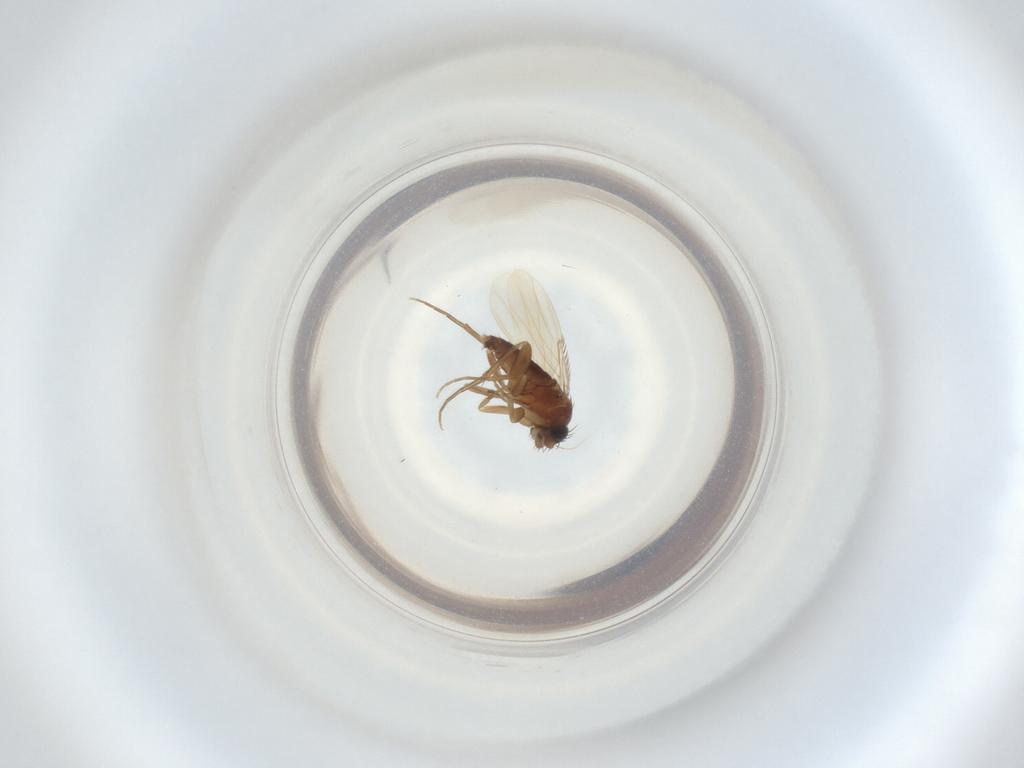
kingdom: Animalia
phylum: Arthropoda
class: Insecta
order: Diptera
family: Phoridae
